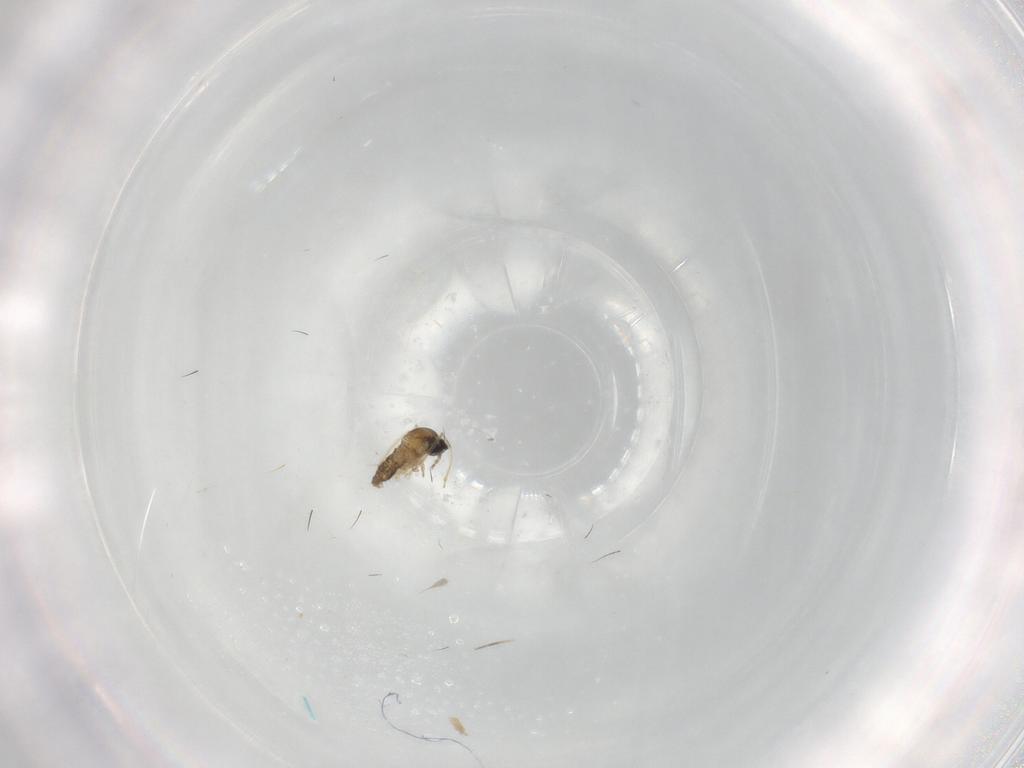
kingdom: Animalia
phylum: Arthropoda
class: Insecta
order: Diptera
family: Cecidomyiidae
